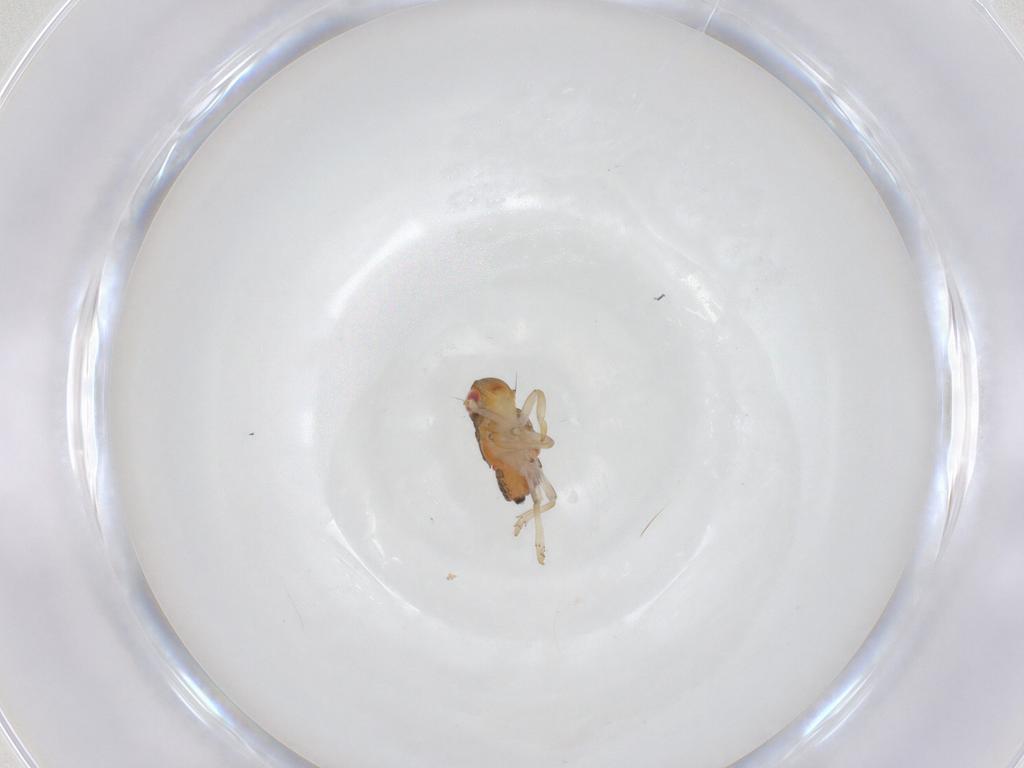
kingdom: Animalia
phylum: Arthropoda
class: Insecta
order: Hemiptera
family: Issidae
